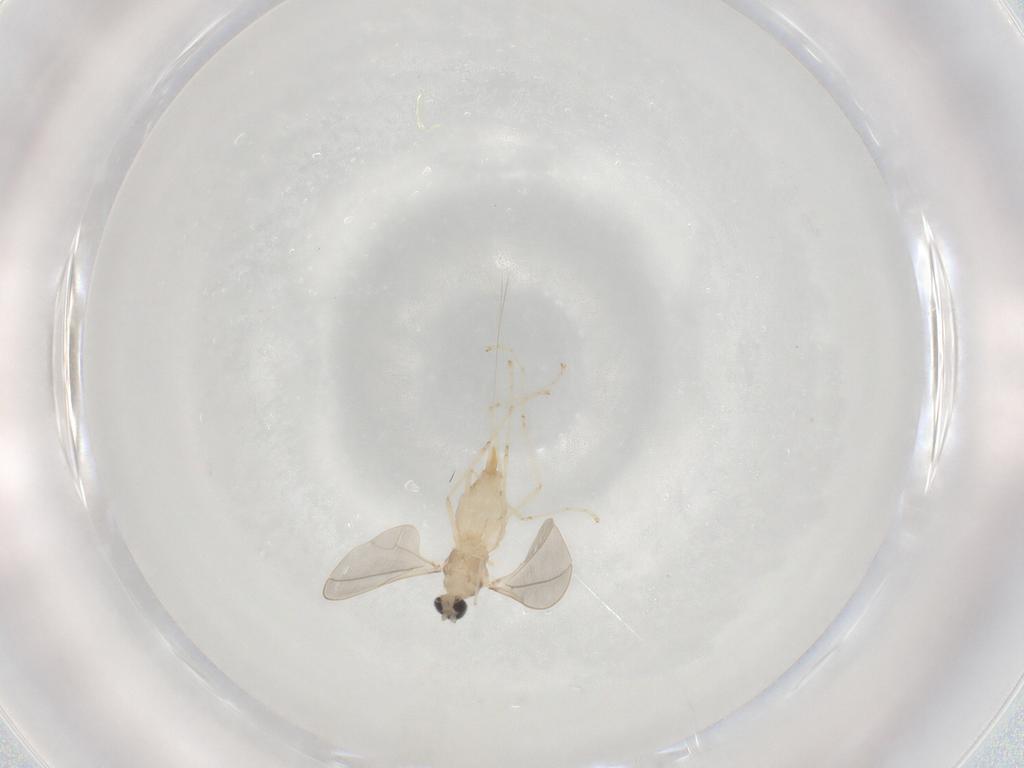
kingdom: Animalia
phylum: Arthropoda
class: Insecta
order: Diptera
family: Cecidomyiidae
